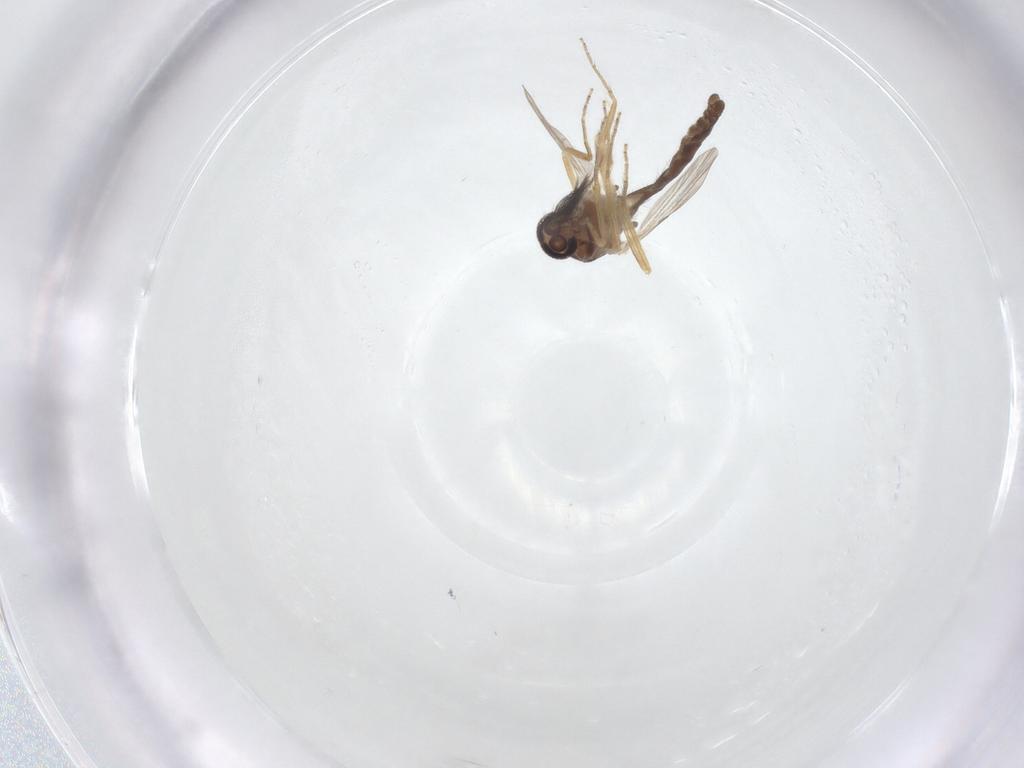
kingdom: Animalia
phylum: Arthropoda
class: Insecta
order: Diptera
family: Ceratopogonidae
